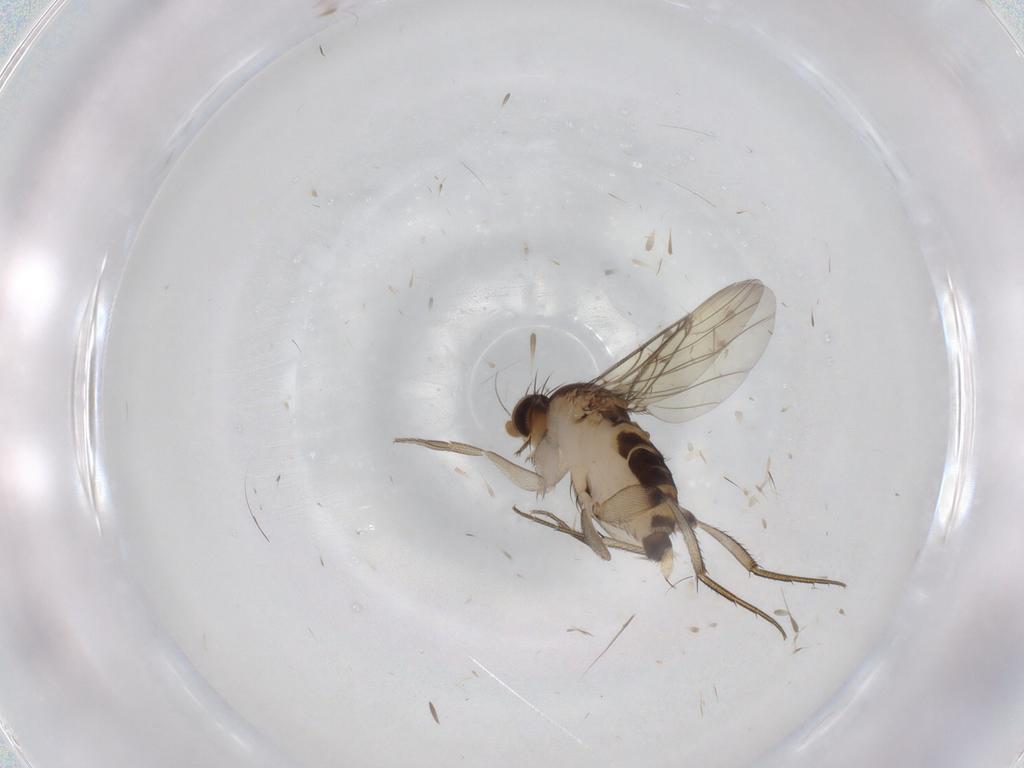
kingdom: Animalia
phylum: Arthropoda
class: Insecta
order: Diptera
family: Phoridae
